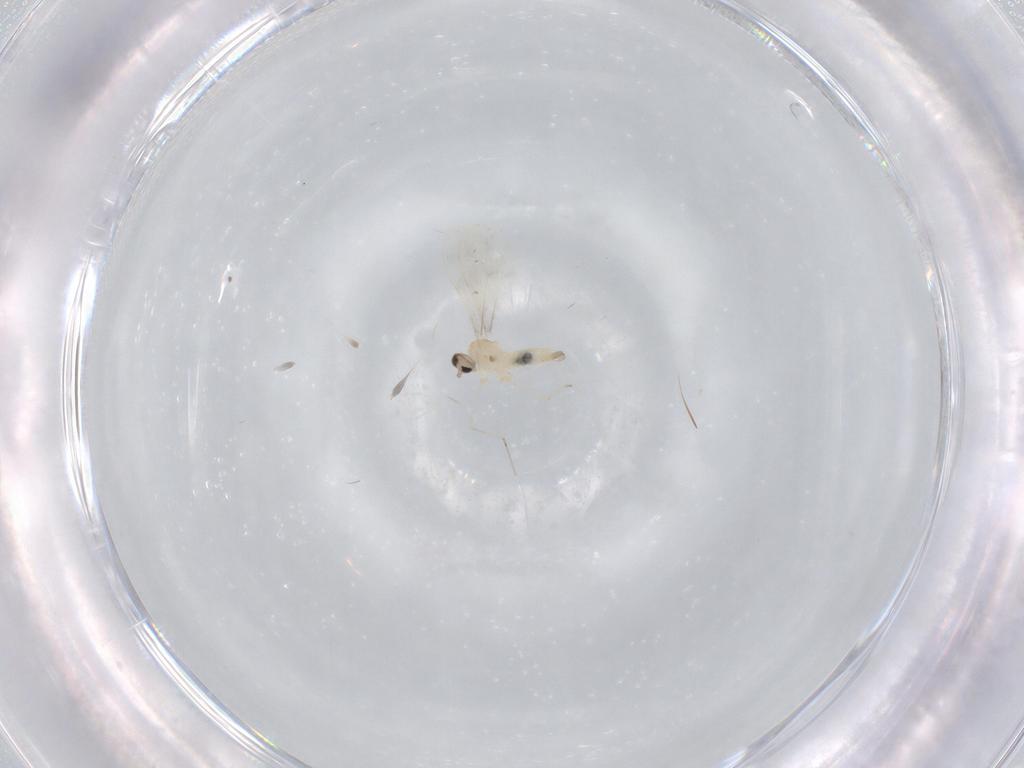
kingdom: Animalia
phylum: Arthropoda
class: Insecta
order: Diptera
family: Cecidomyiidae
